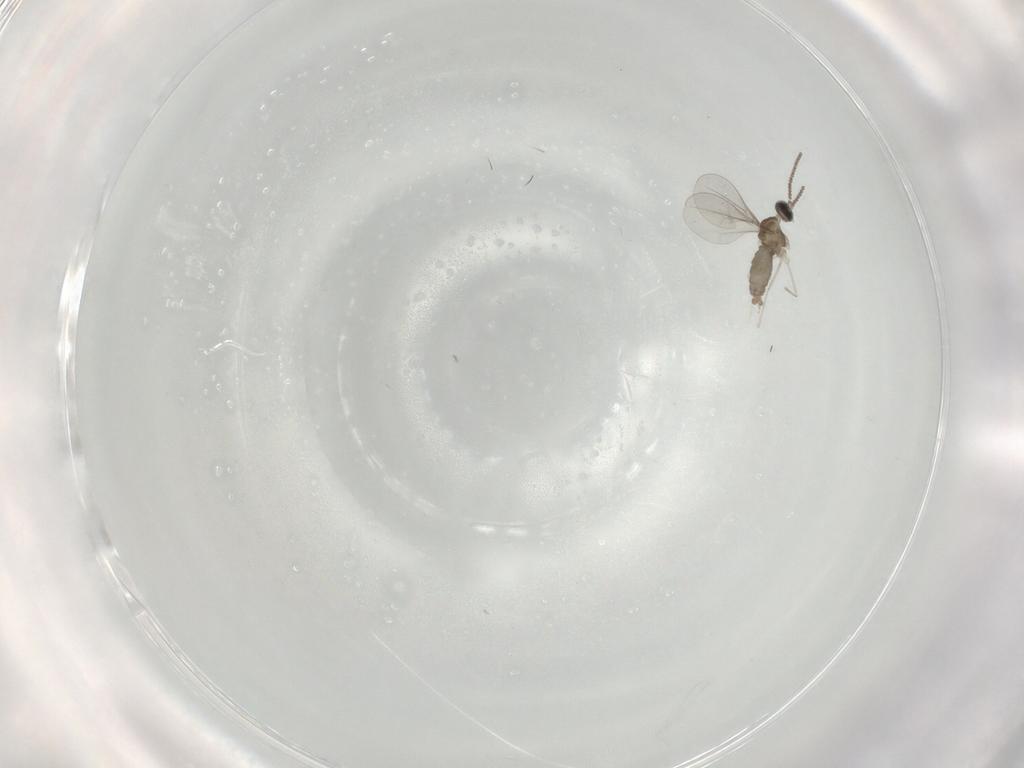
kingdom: Animalia
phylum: Arthropoda
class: Insecta
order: Diptera
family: Cecidomyiidae
